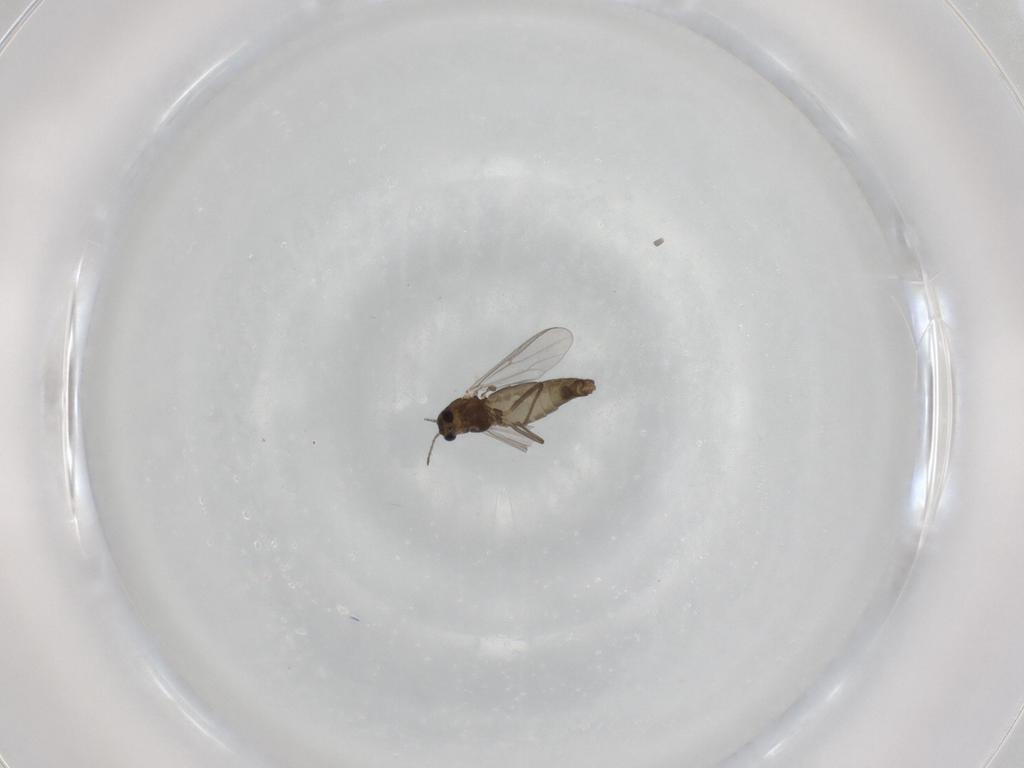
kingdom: Animalia
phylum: Arthropoda
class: Insecta
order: Diptera
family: Chironomidae
